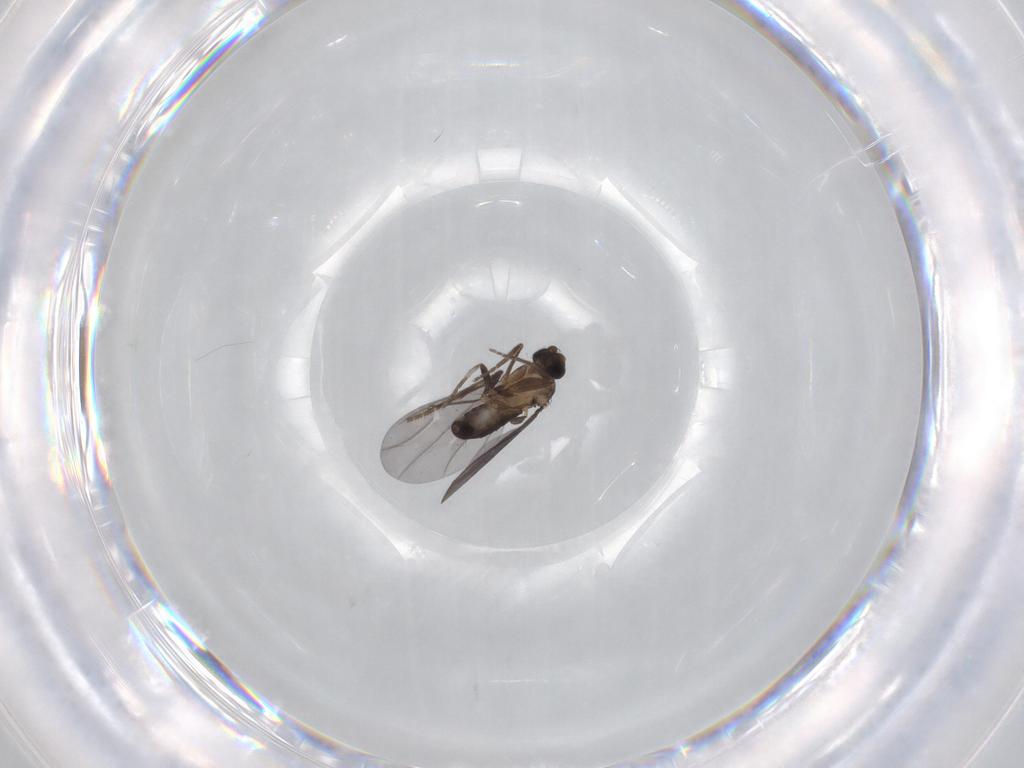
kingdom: Animalia
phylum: Arthropoda
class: Insecta
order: Diptera
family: Phoridae
